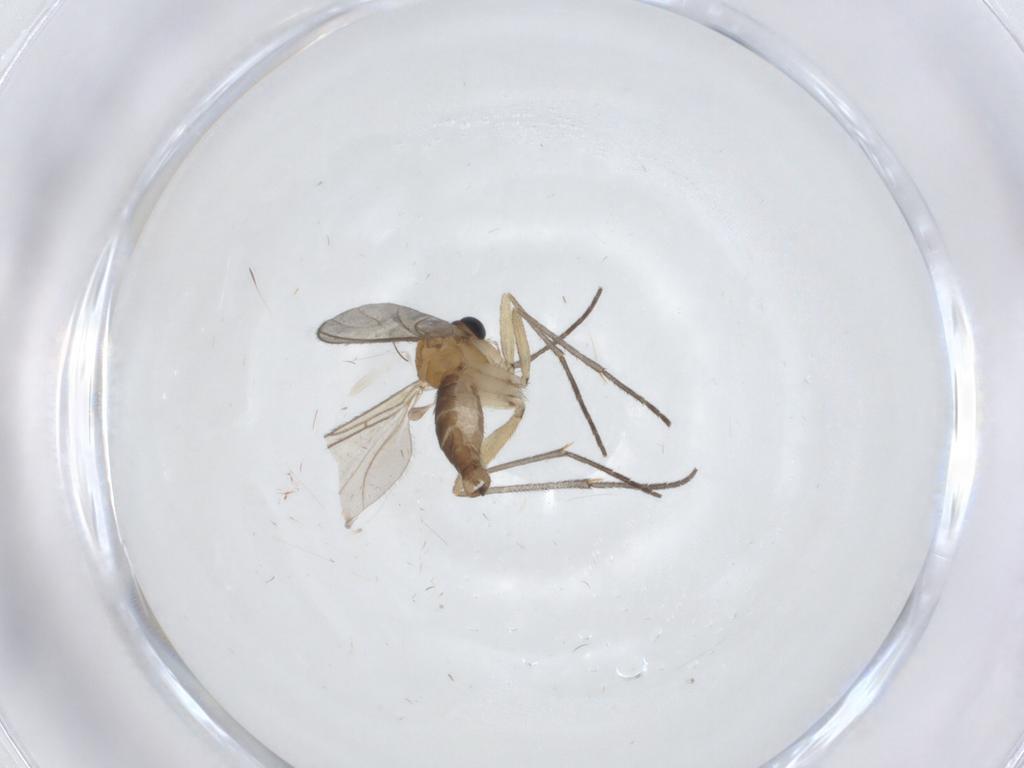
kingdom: Animalia
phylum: Arthropoda
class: Insecta
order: Diptera
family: Sciaridae
